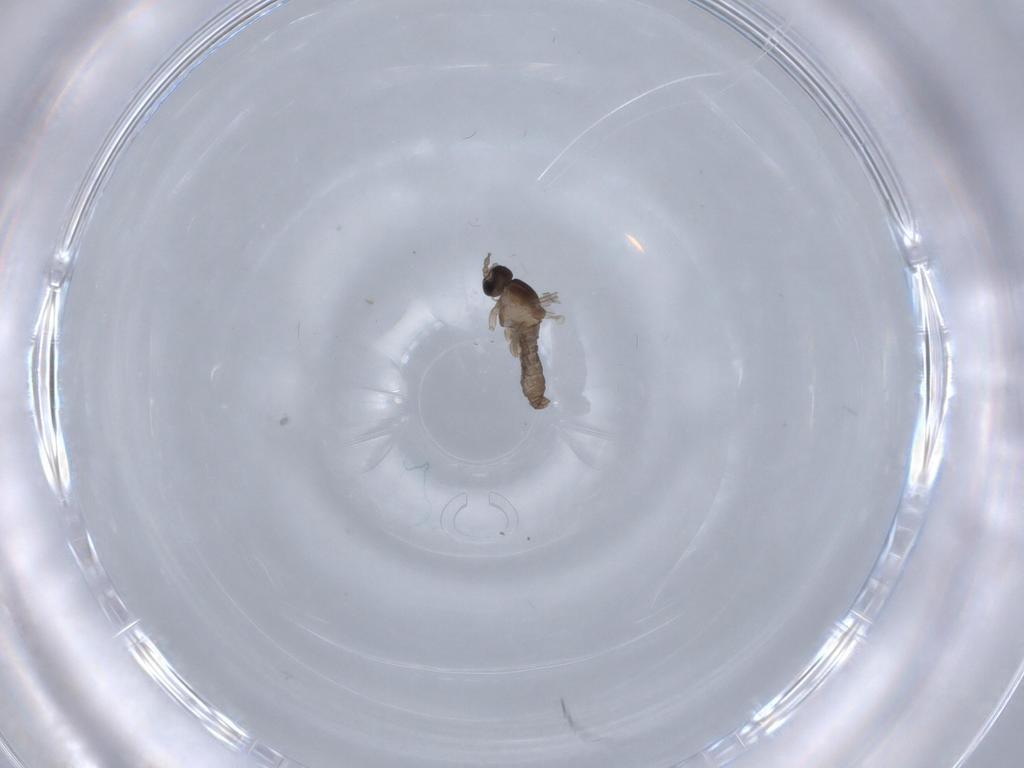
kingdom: Animalia
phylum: Arthropoda
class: Insecta
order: Diptera
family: Cecidomyiidae
